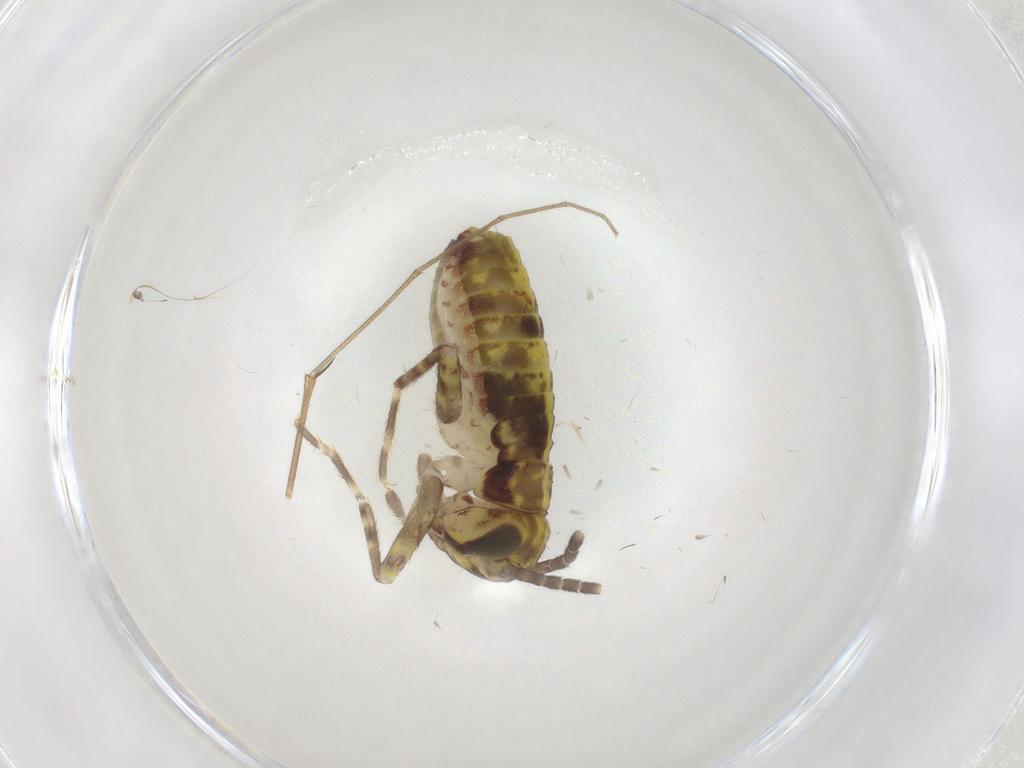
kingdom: Animalia
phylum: Arthropoda
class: Insecta
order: Orthoptera
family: Gryllidae
